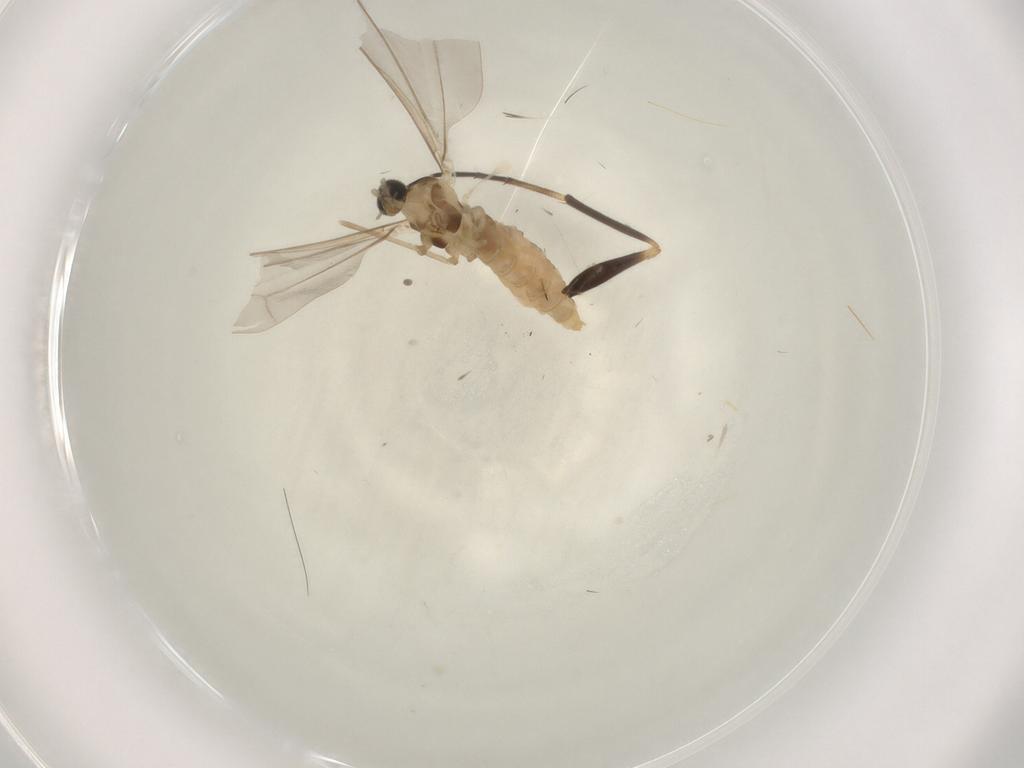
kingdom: Animalia
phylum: Arthropoda
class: Insecta
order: Diptera
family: Cecidomyiidae
